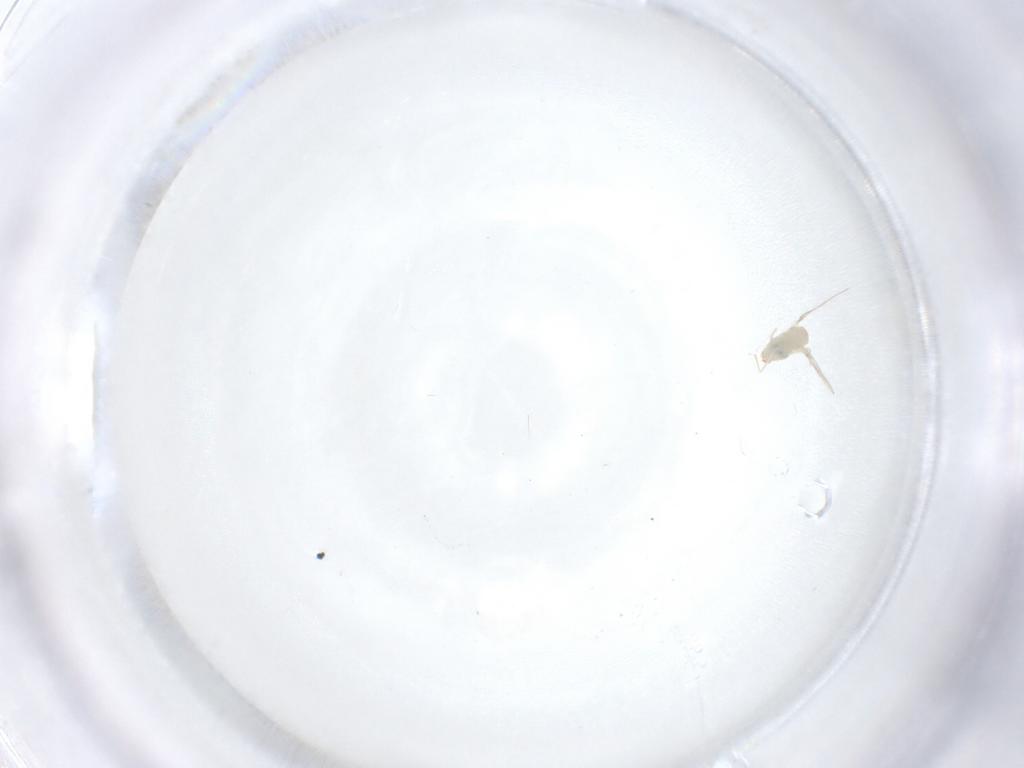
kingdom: Animalia
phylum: Arthropoda
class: Insecta
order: Diptera
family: Cecidomyiidae
